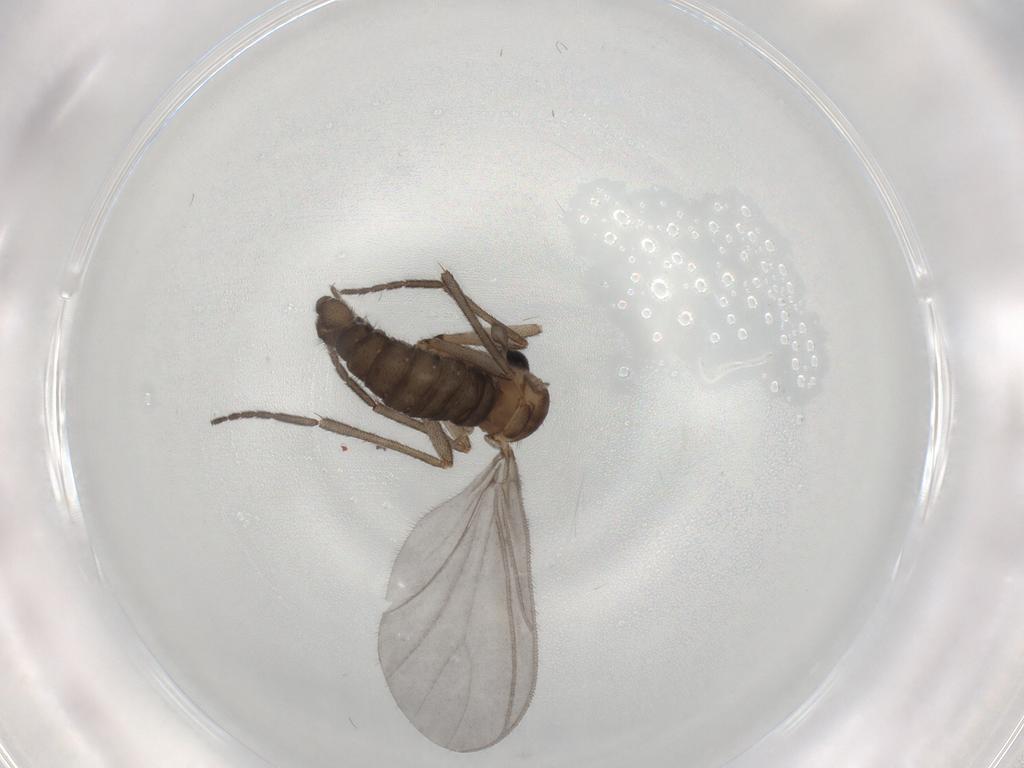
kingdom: Animalia
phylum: Arthropoda
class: Insecta
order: Diptera
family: Sciaridae
